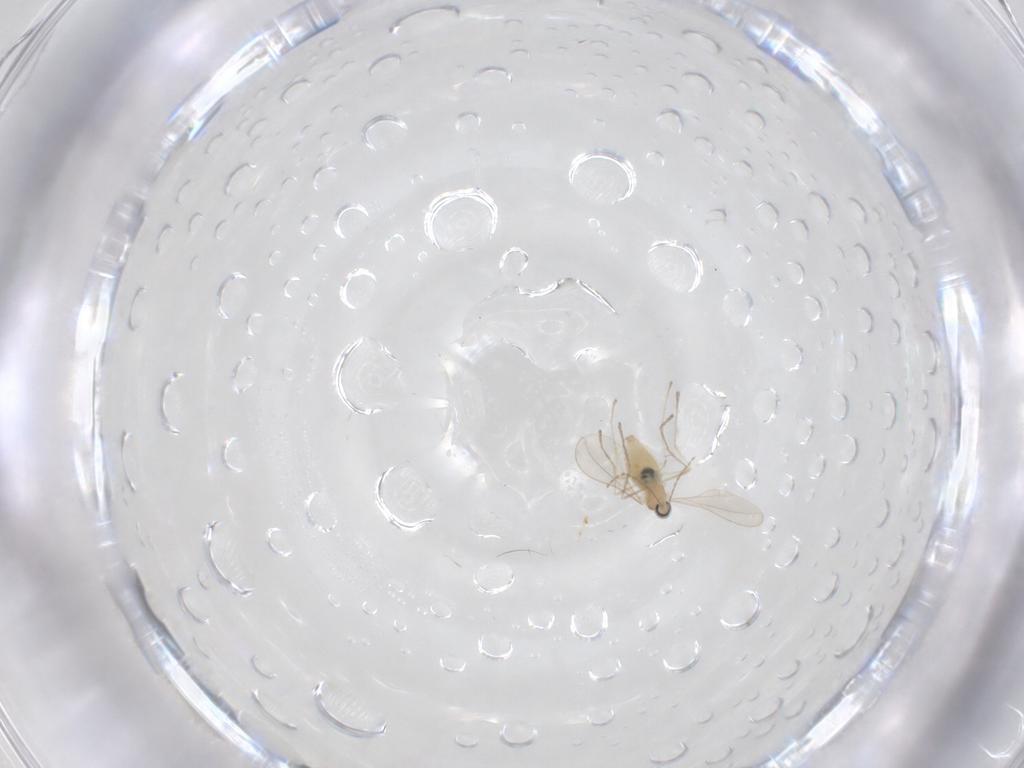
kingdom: Animalia
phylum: Arthropoda
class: Insecta
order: Diptera
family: Cecidomyiidae
